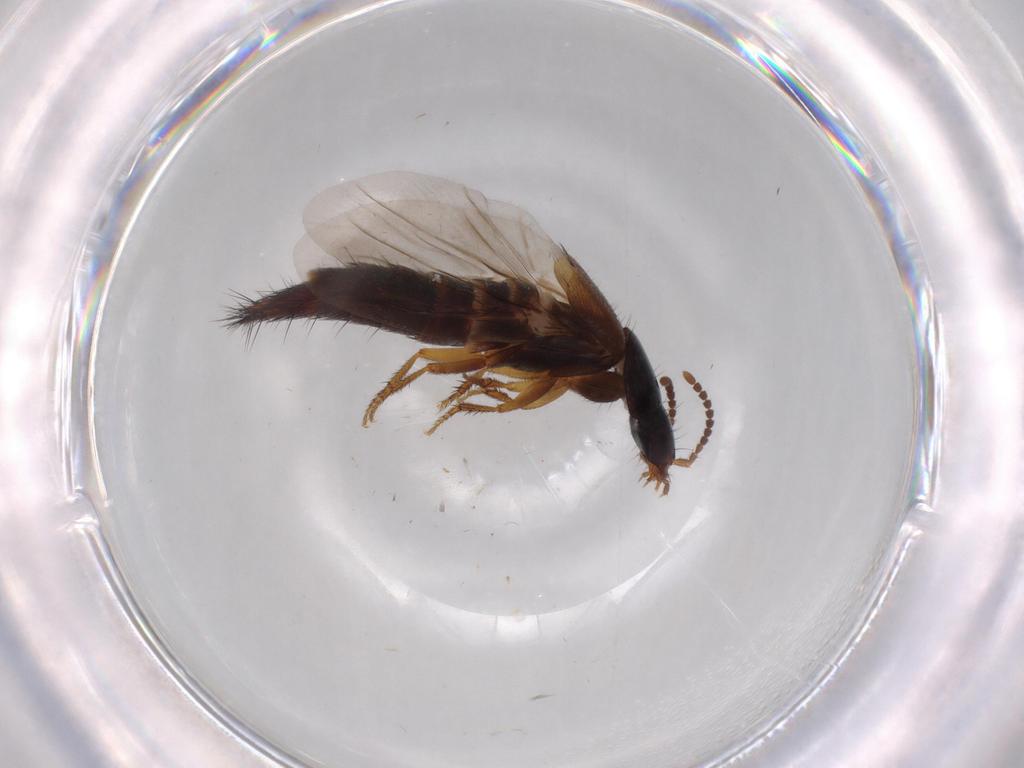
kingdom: Animalia
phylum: Arthropoda
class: Insecta
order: Coleoptera
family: Staphylinidae
